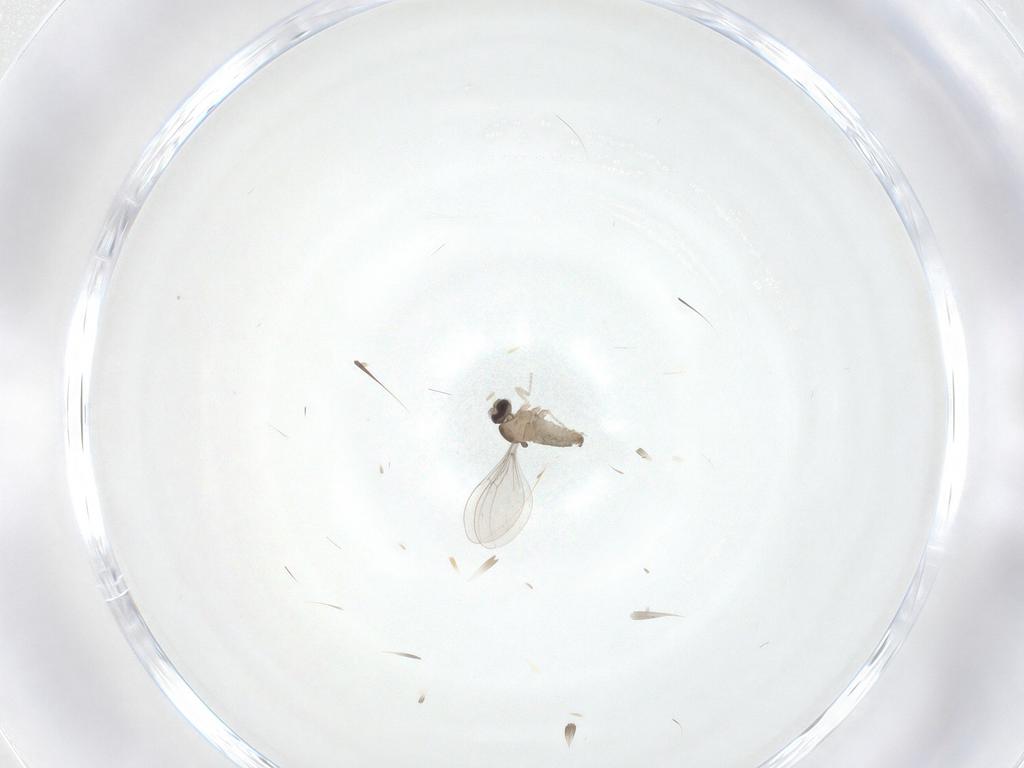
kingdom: Animalia
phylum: Arthropoda
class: Insecta
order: Diptera
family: Cecidomyiidae
